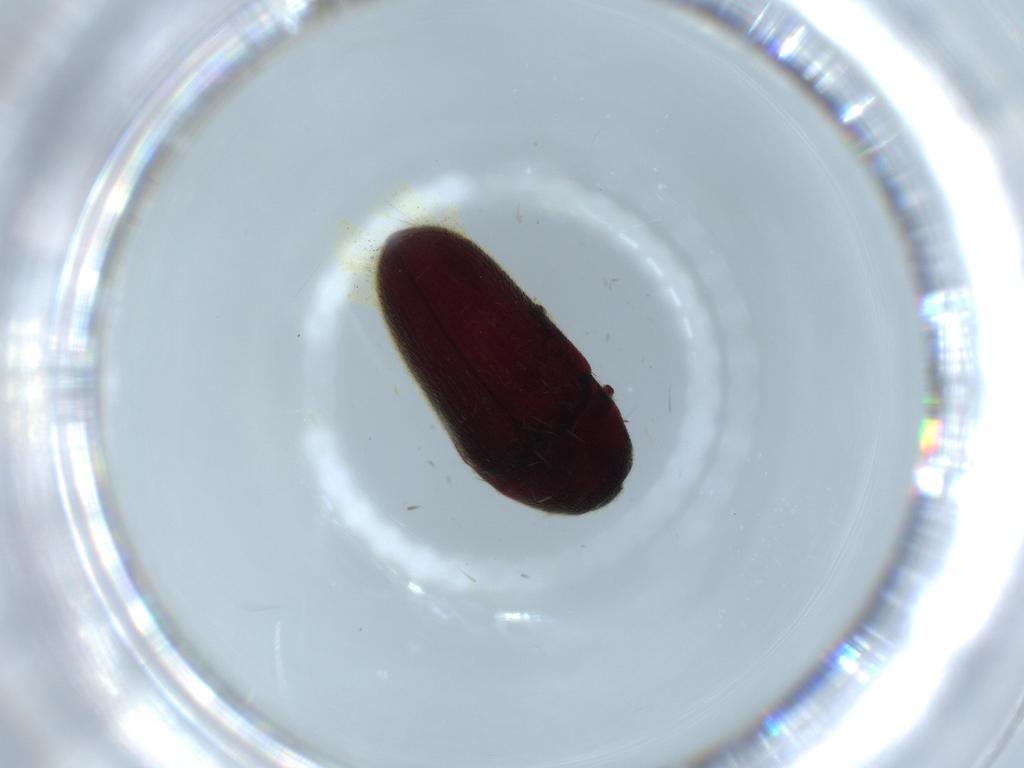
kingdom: Animalia
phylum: Arthropoda
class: Insecta
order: Coleoptera
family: Throscidae
